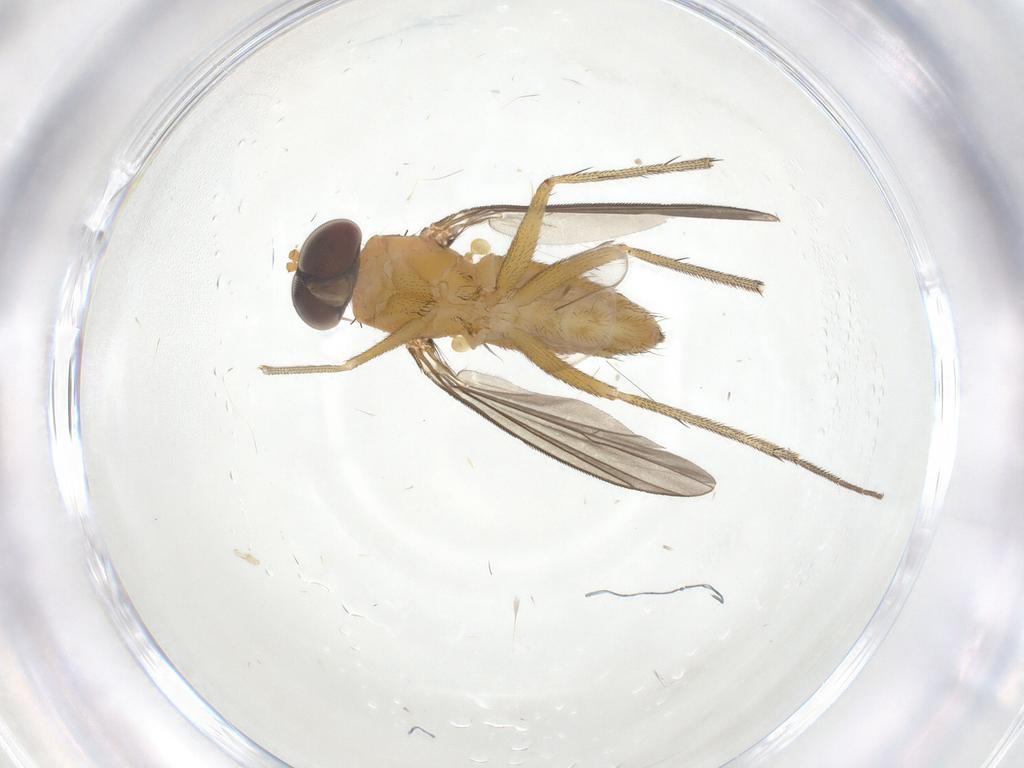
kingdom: Animalia
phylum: Arthropoda
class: Insecta
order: Diptera
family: Dolichopodidae
